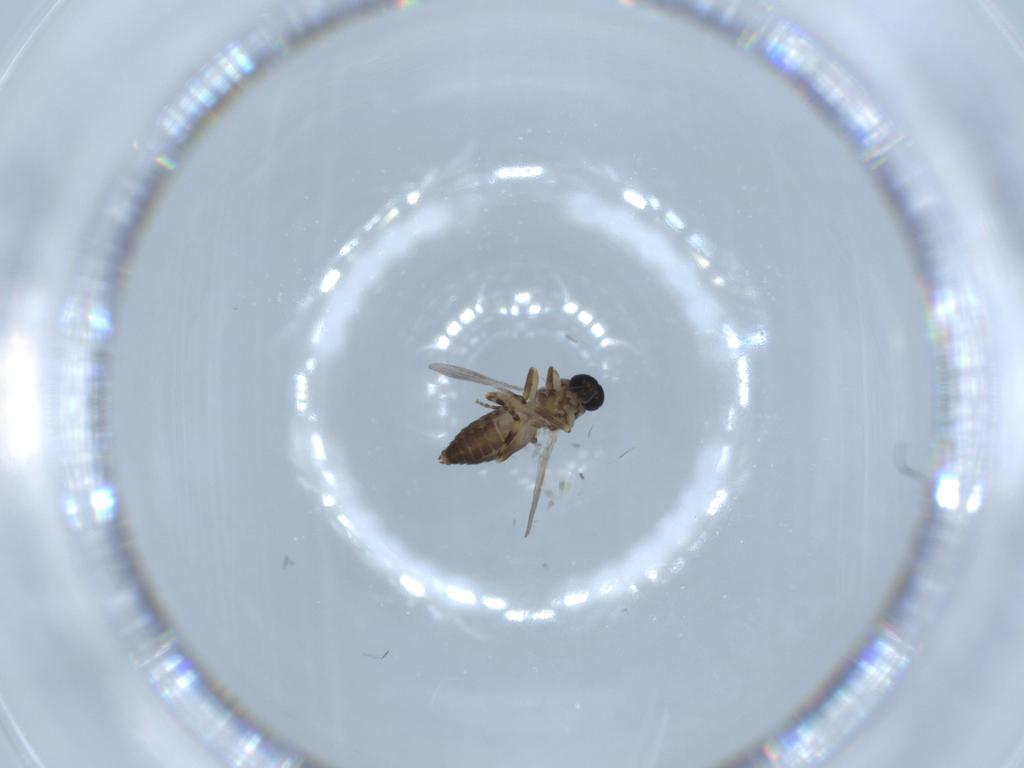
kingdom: Animalia
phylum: Arthropoda
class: Insecta
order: Diptera
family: Ceratopogonidae
